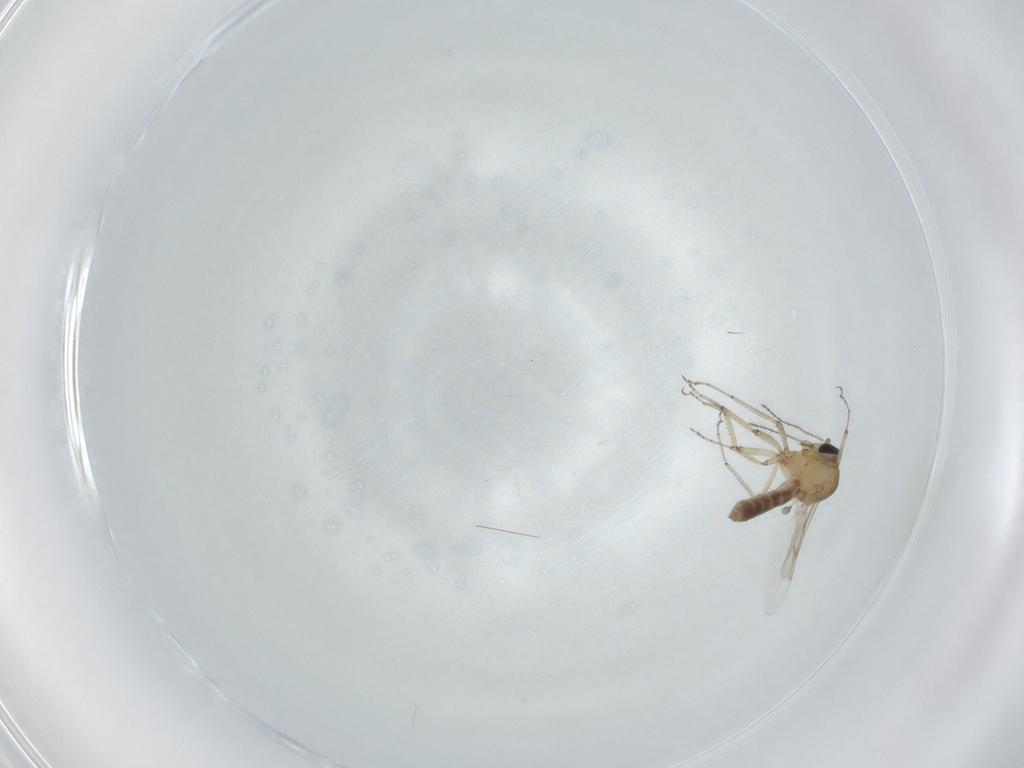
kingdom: Animalia
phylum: Arthropoda
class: Insecta
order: Diptera
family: Ceratopogonidae
